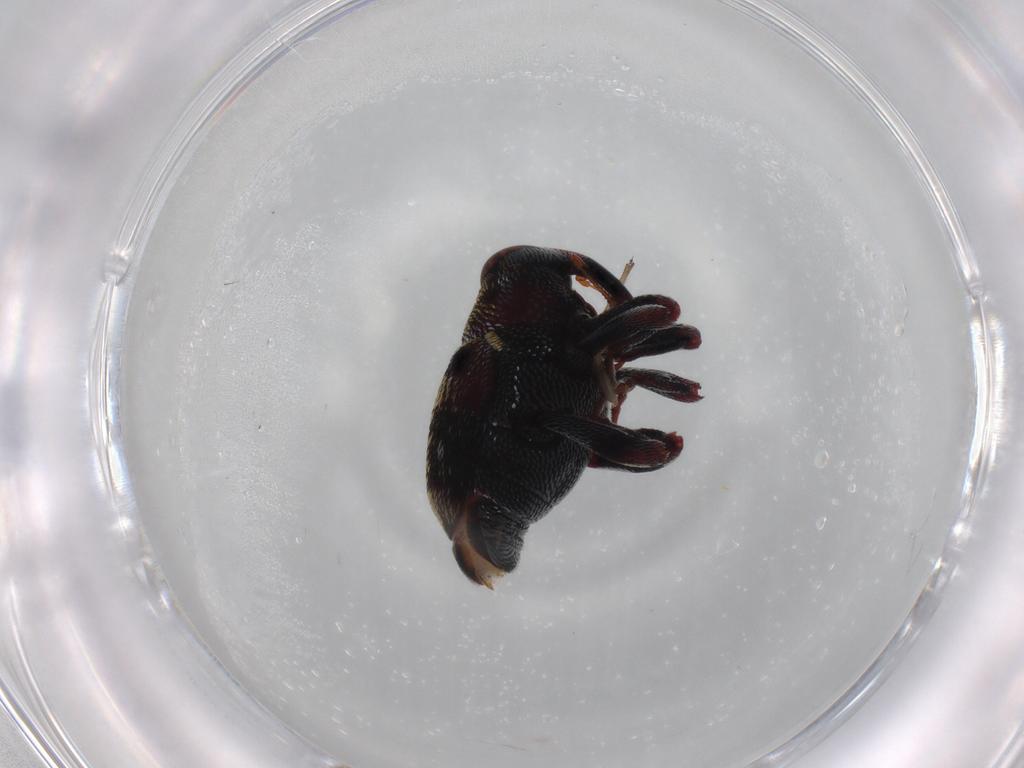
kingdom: Animalia
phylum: Arthropoda
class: Insecta
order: Coleoptera
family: Curculionidae
